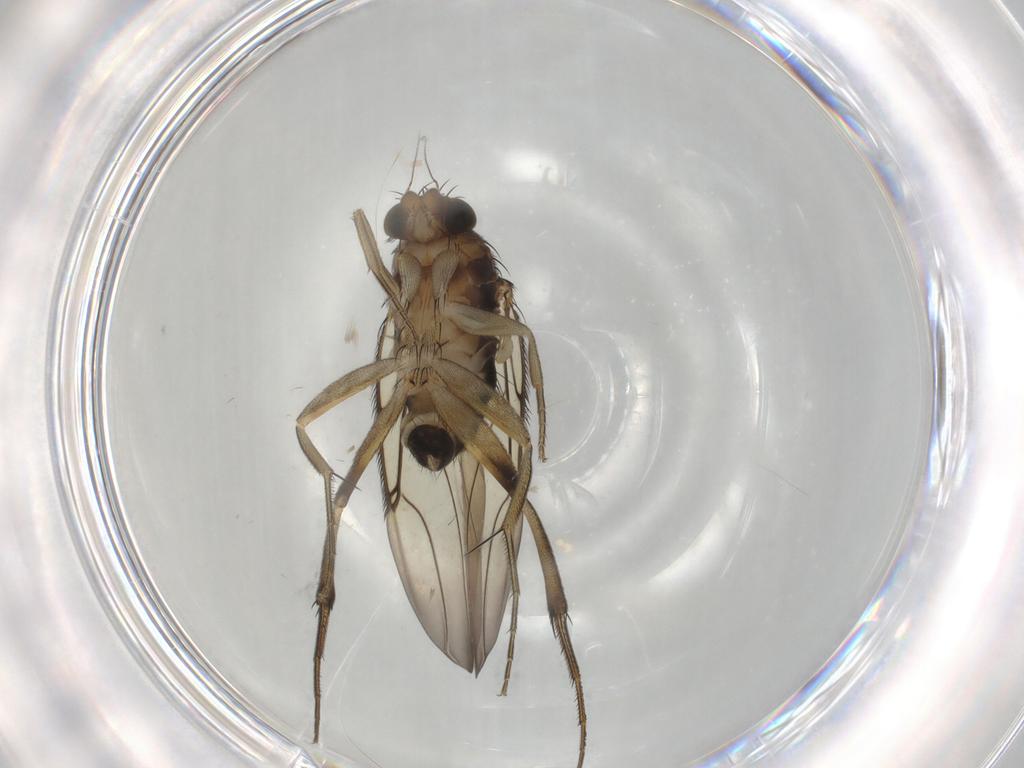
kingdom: Animalia
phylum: Arthropoda
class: Insecta
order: Diptera
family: Phoridae
